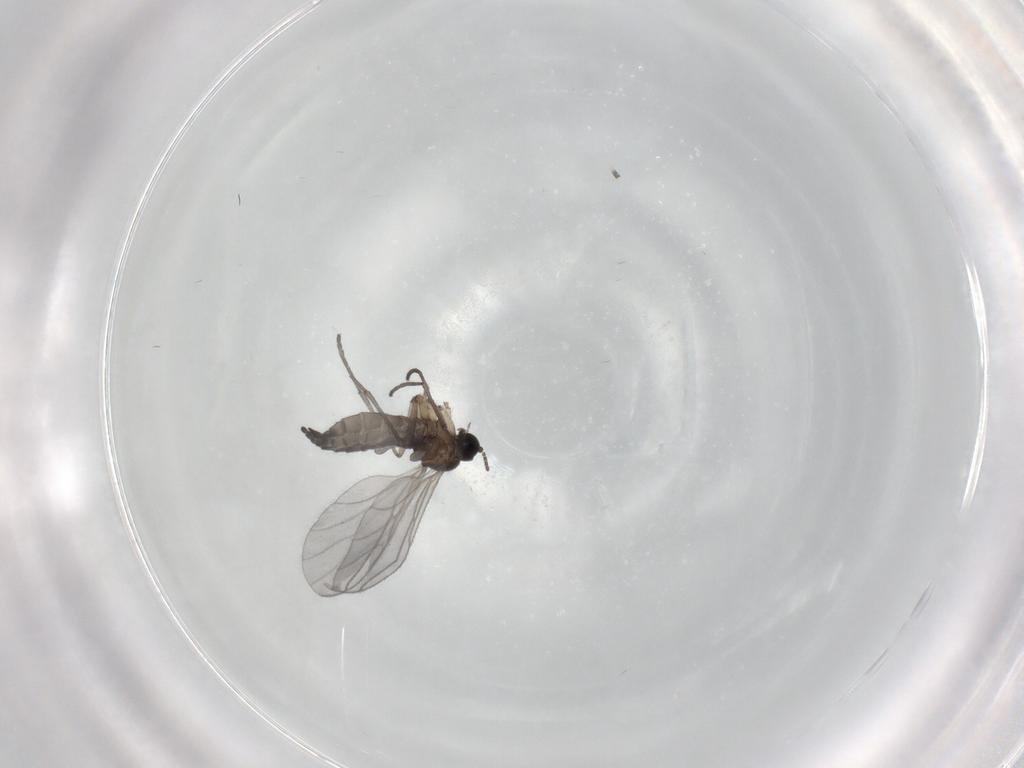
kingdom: Animalia
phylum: Arthropoda
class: Insecta
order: Diptera
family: Sciaridae
